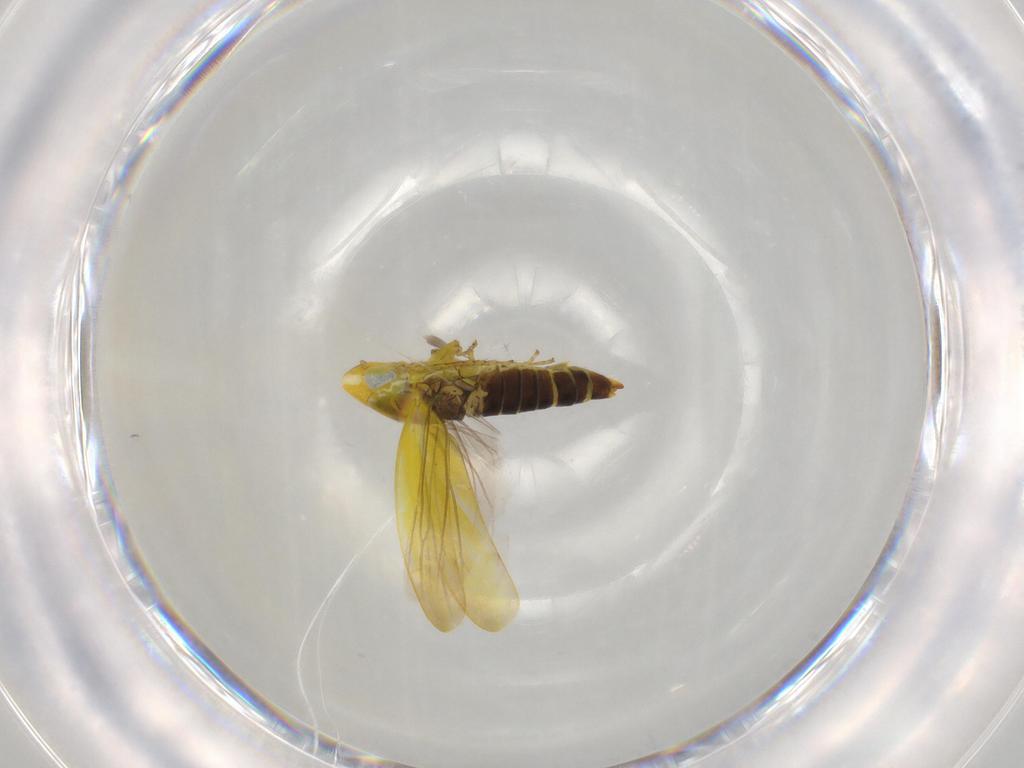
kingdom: Animalia
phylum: Arthropoda
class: Insecta
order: Hemiptera
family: Cicadellidae
